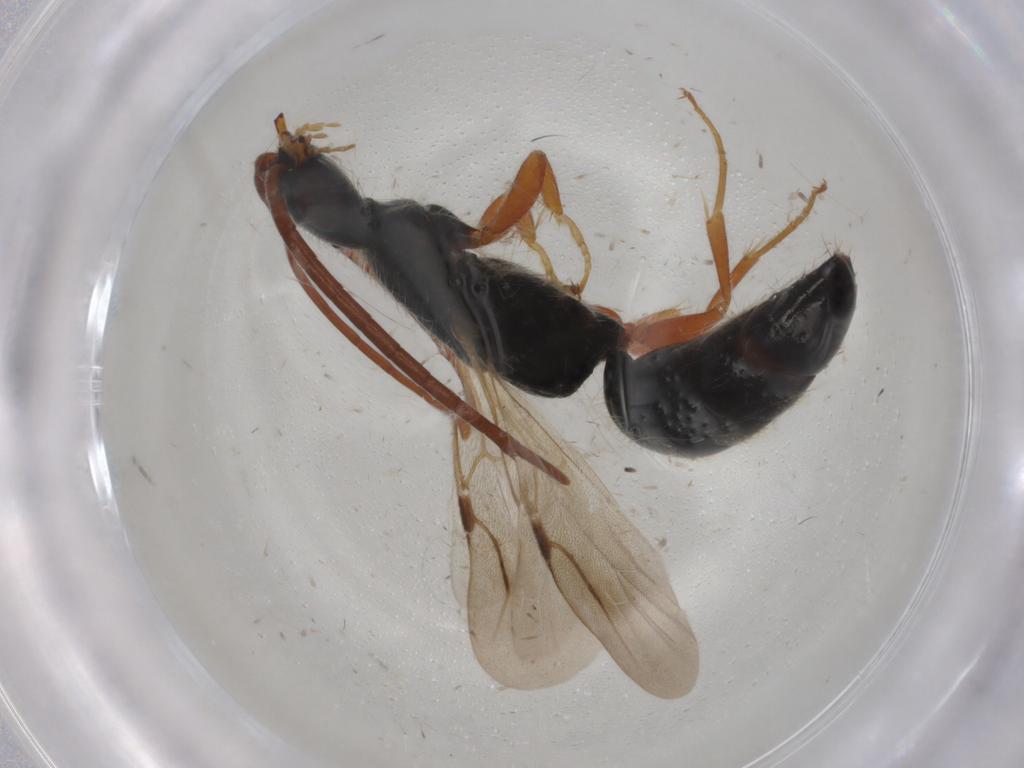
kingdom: Animalia
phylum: Arthropoda
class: Insecta
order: Hymenoptera
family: Bethylidae
